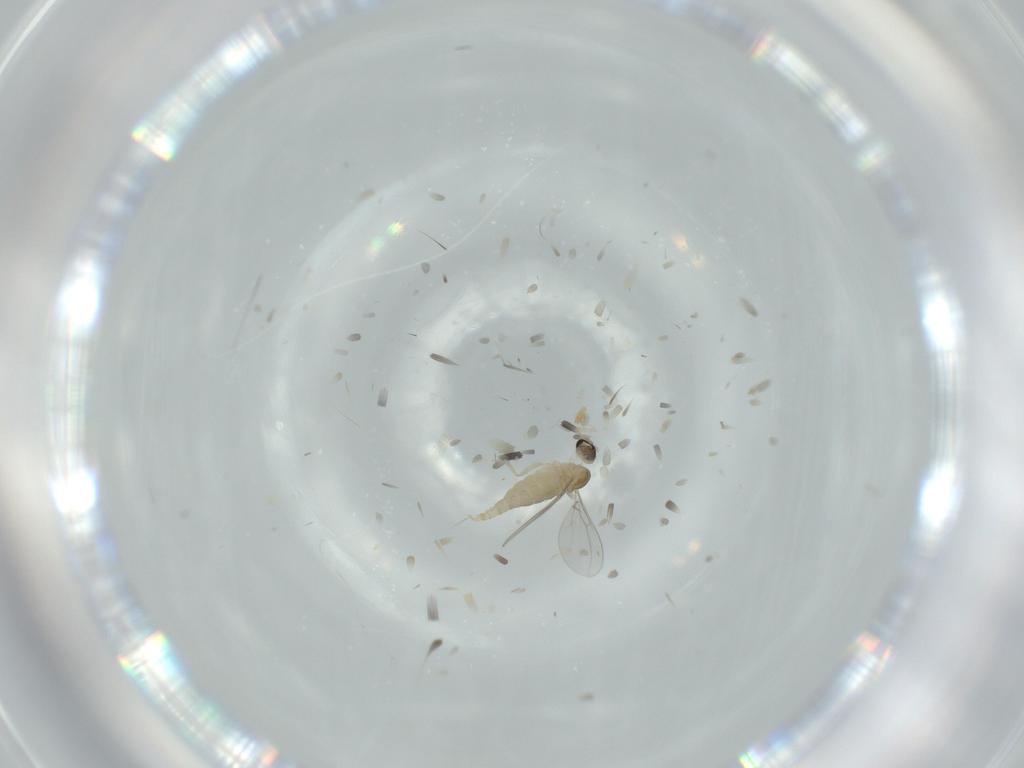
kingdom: Animalia
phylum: Arthropoda
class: Insecta
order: Diptera
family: Cecidomyiidae
